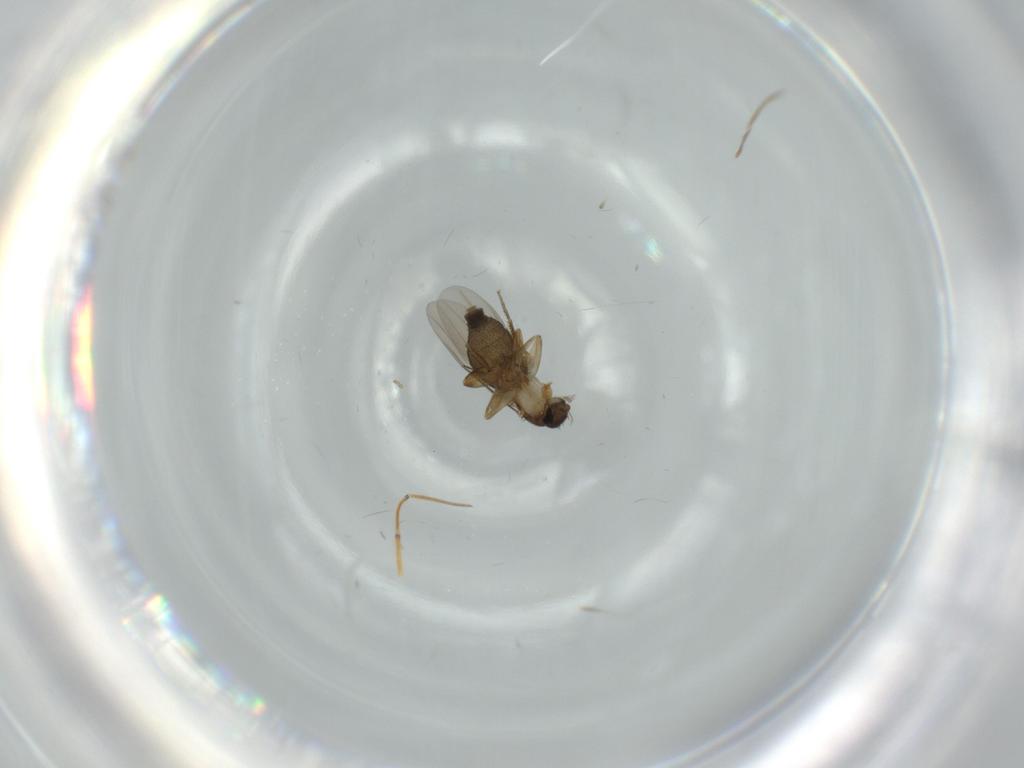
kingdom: Animalia
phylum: Arthropoda
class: Insecta
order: Diptera
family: Phoridae
